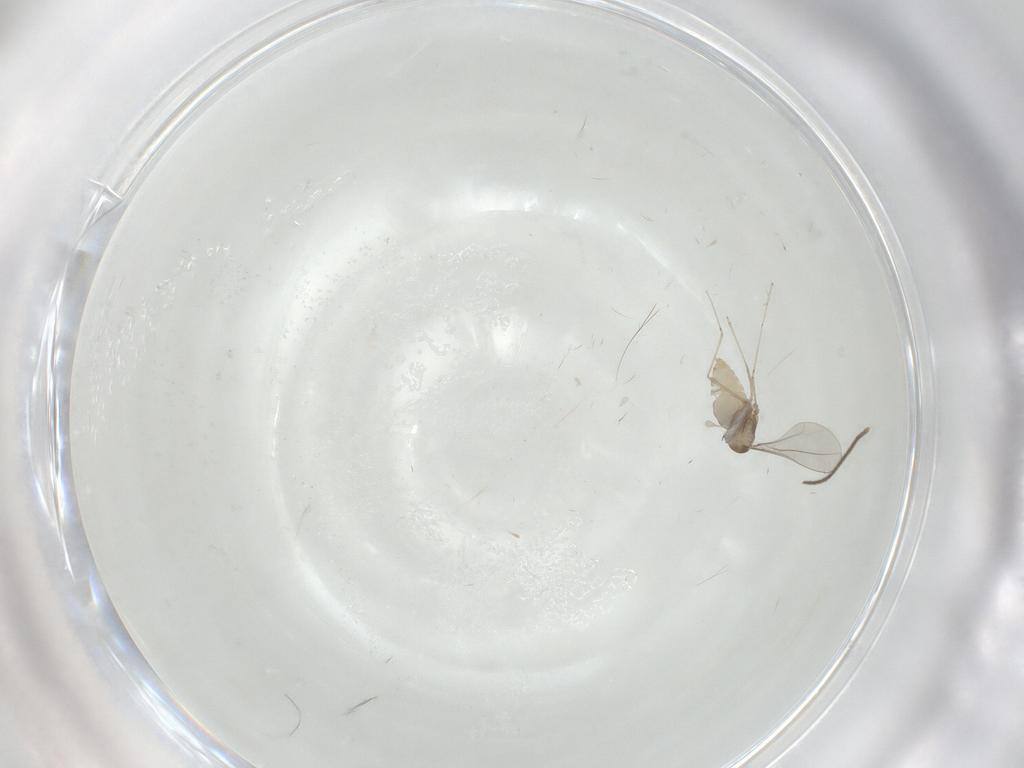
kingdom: Animalia
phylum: Arthropoda
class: Insecta
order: Diptera
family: Sciaridae
